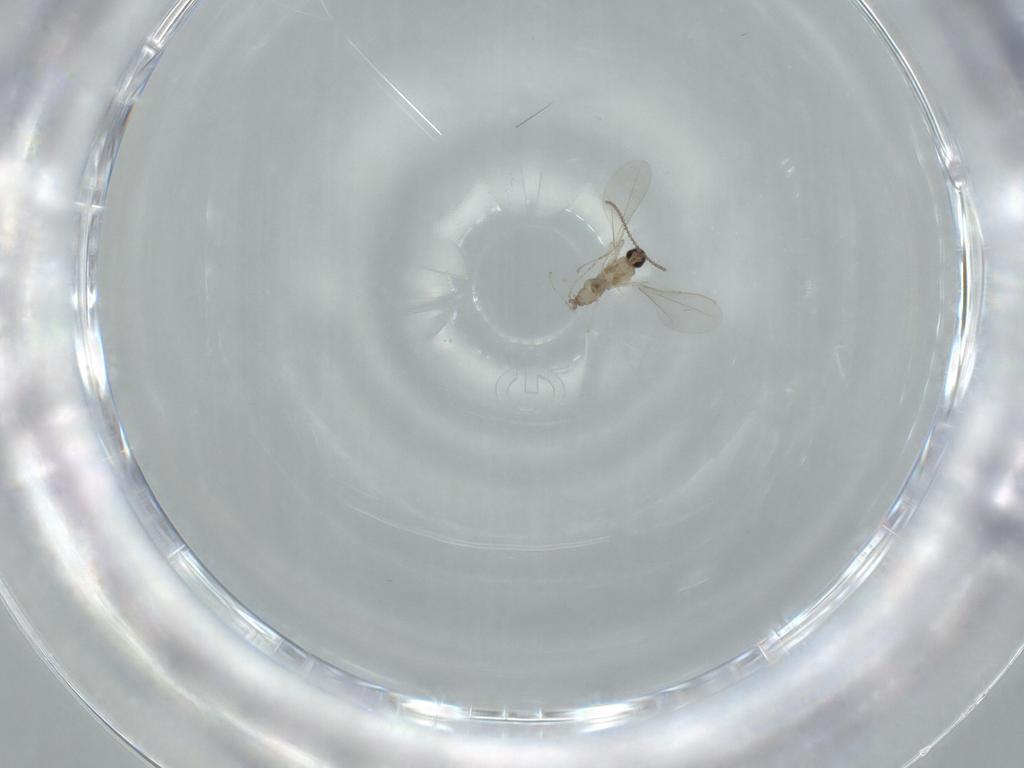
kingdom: Animalia
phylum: Arthropoda
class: Insecta
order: Diptera
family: Cecidomyiidae
